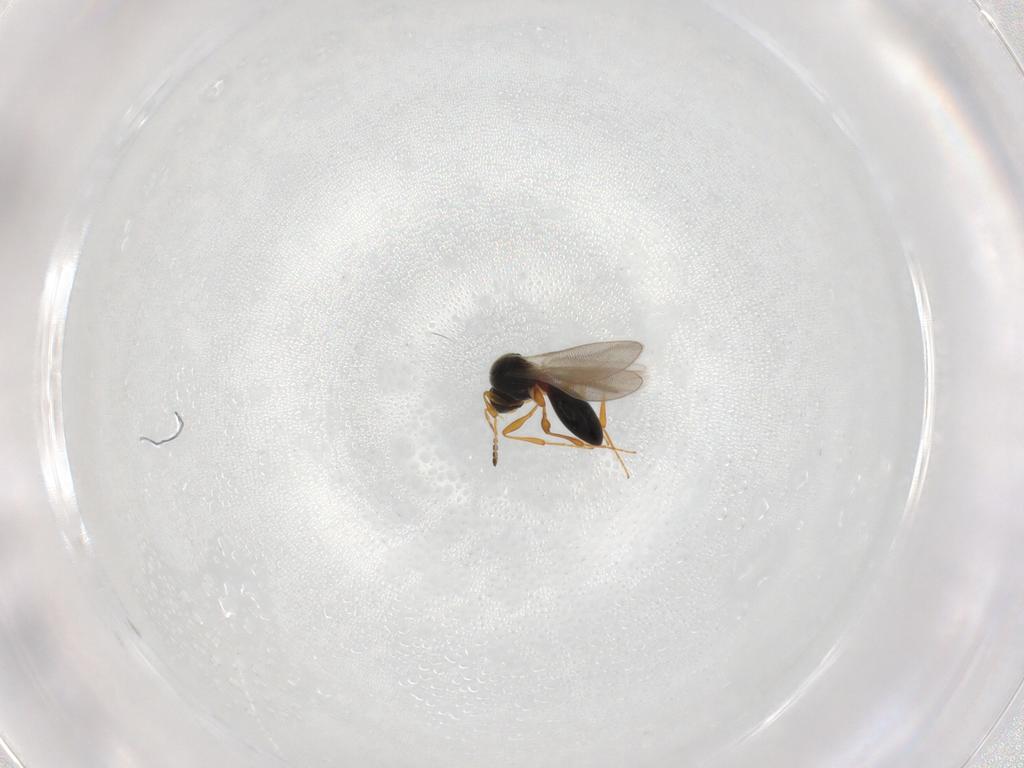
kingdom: Animalia
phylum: Arthropoda
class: Insecta
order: Hymenoptera
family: Platygastridae
